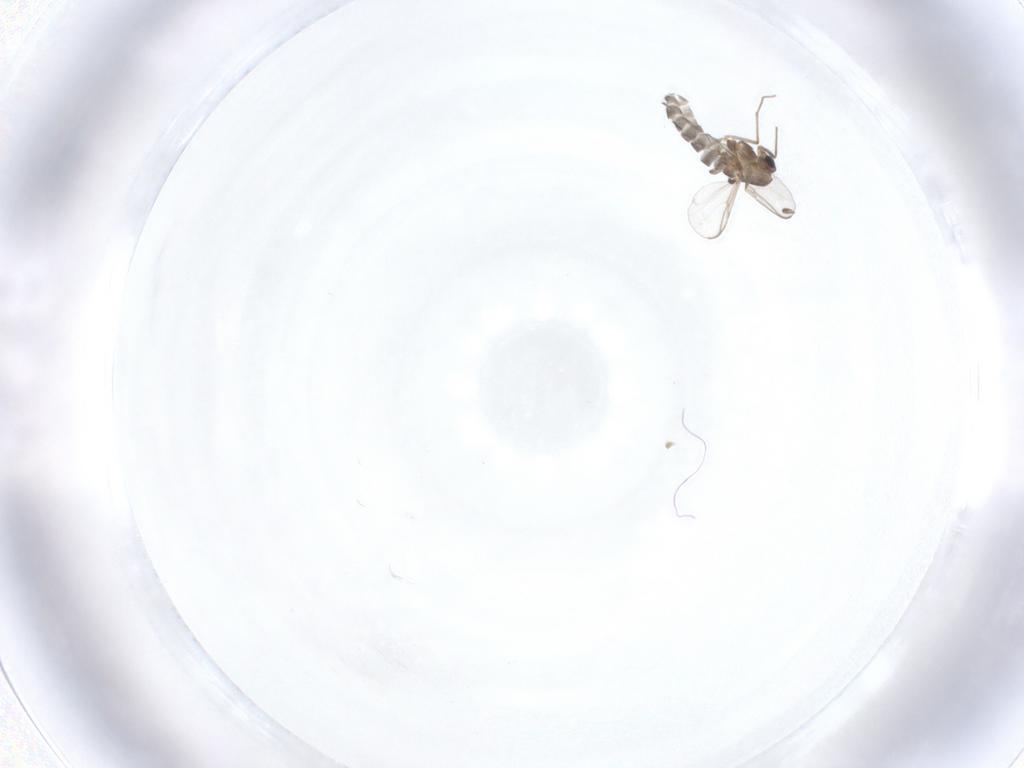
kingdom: Animalia
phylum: Arthropoda
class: Insecta
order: Diptera
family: Chironomidae
